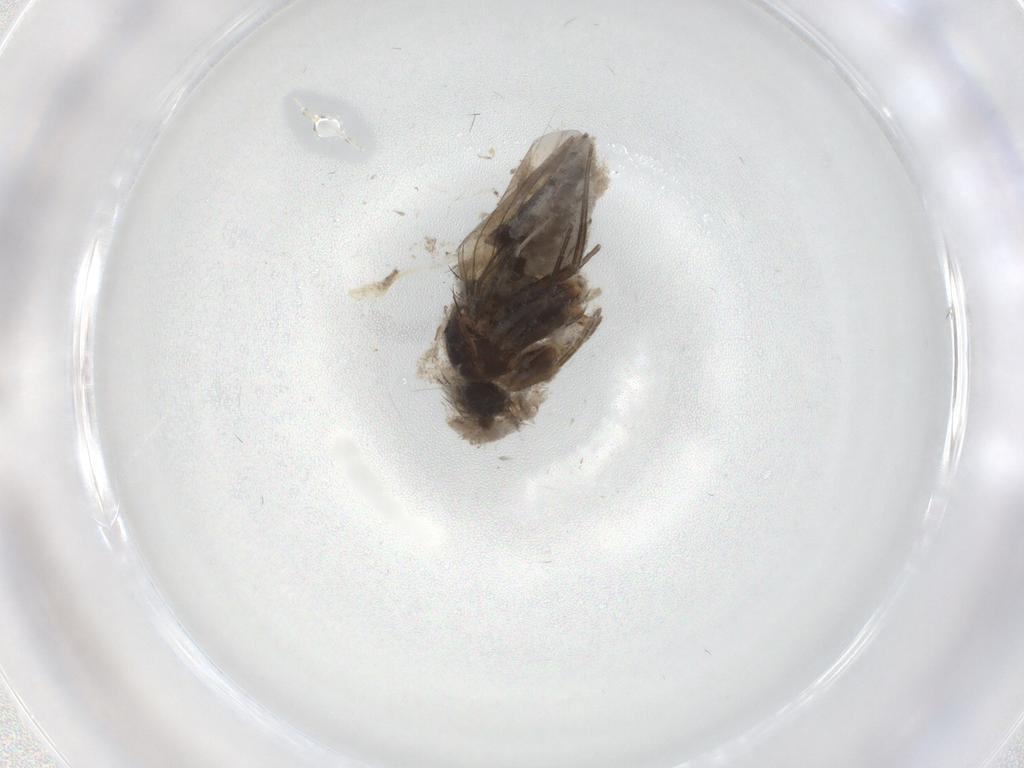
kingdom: Animalia
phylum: Arthropoda
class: Insecta
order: Diptera
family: Phoridae
